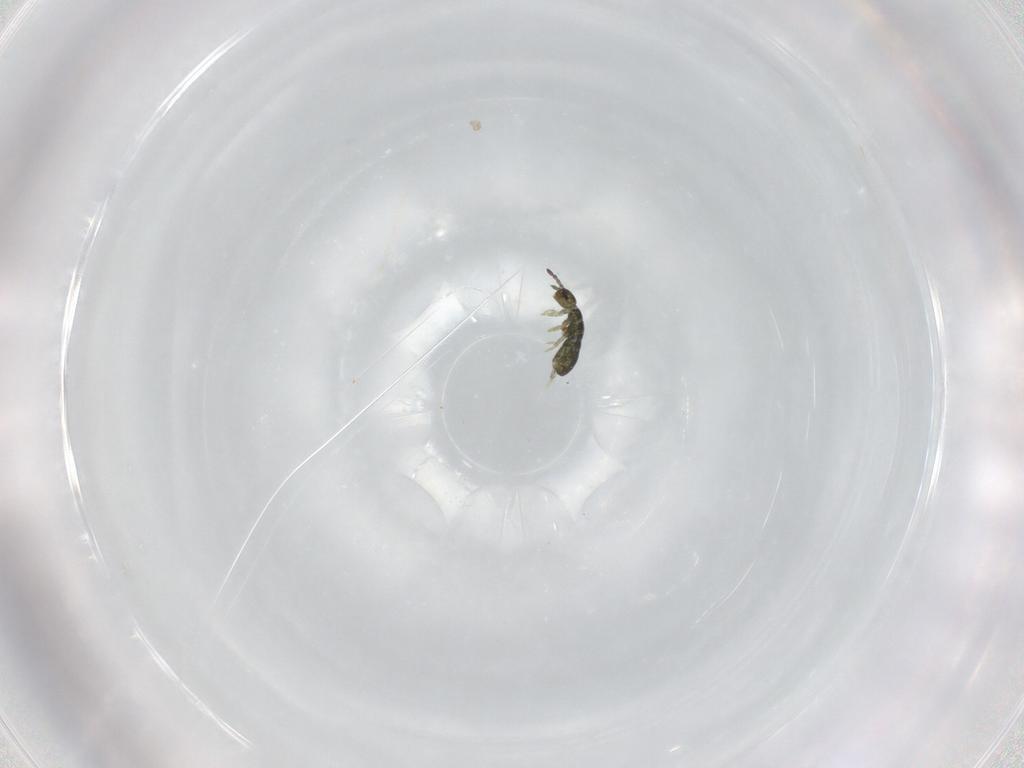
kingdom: Animalia
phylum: Arthropoda
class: Collembola
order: Entomobryomorpha
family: Isotomidae
